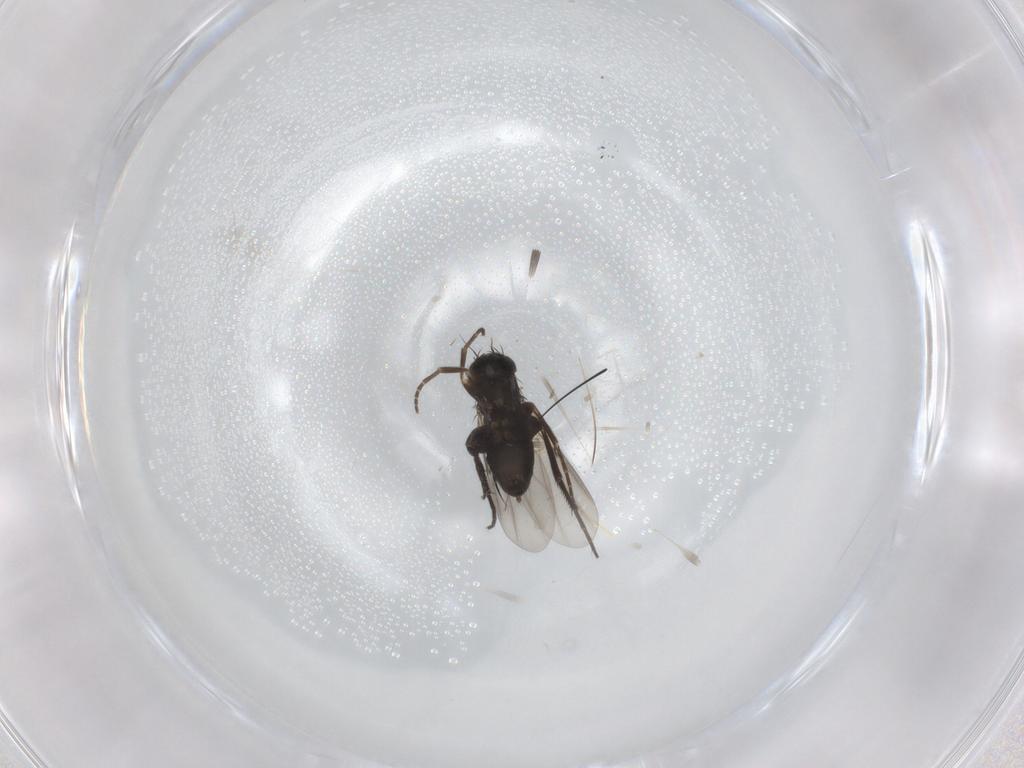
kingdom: Animalia
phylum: Arthropoda
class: Insecta
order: Diptera
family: Phoridae
